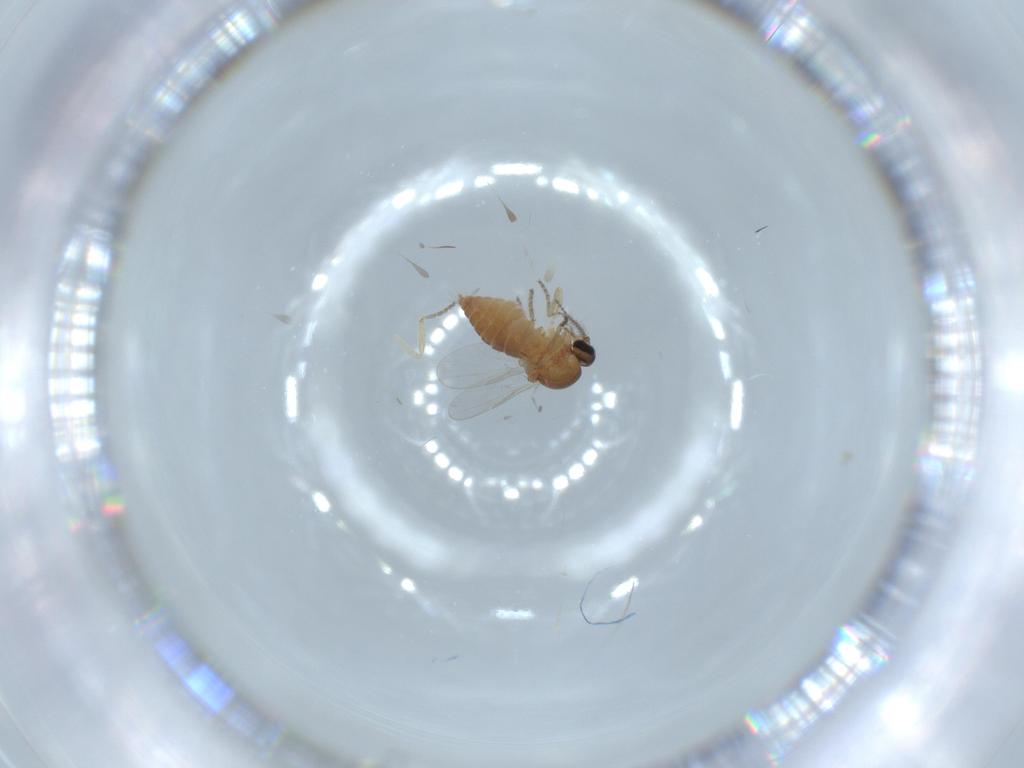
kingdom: Animalia
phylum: Arthropoda
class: Insecta
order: Diptera
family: Ceratopogonidae
